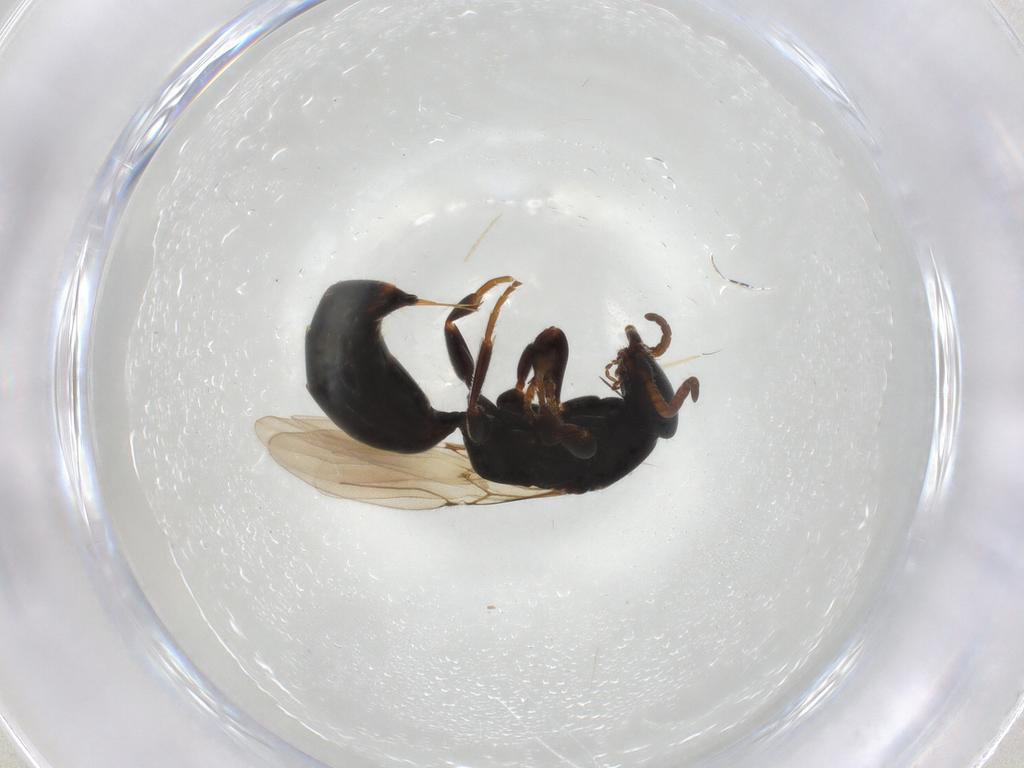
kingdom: Animalia
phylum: Arthropoda
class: Insecta
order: Hymenoptera
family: Bethylidae
